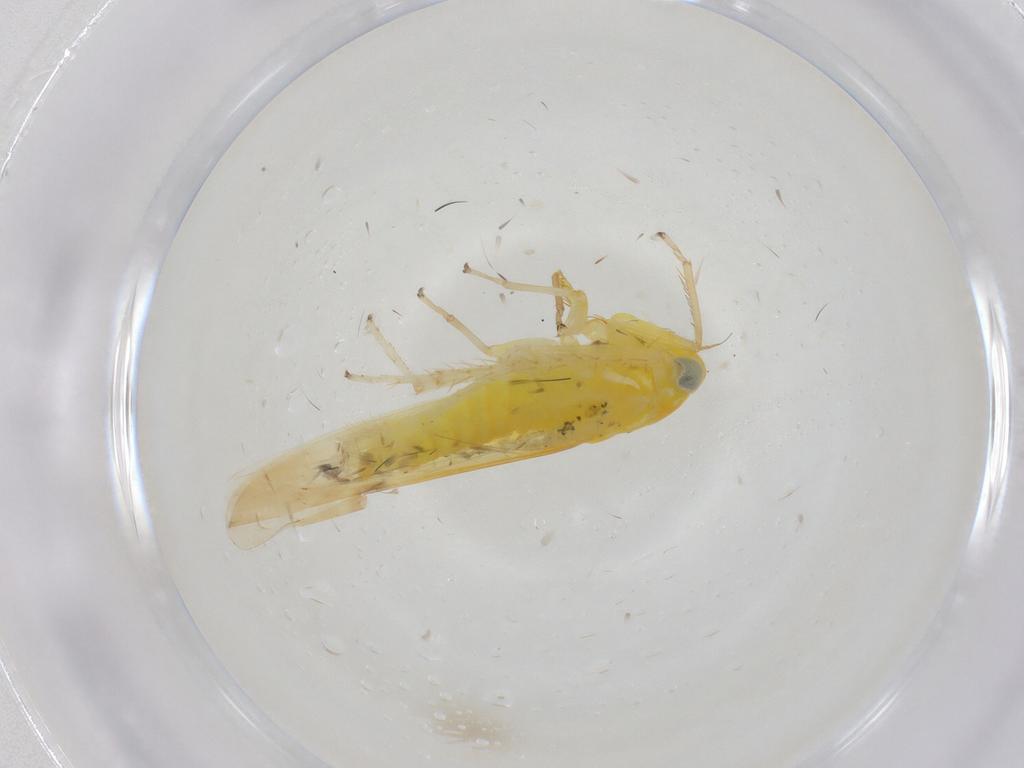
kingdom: Animalia
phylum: Arthropoda
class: Insecta
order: Hemiptera
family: Cicadellidae
